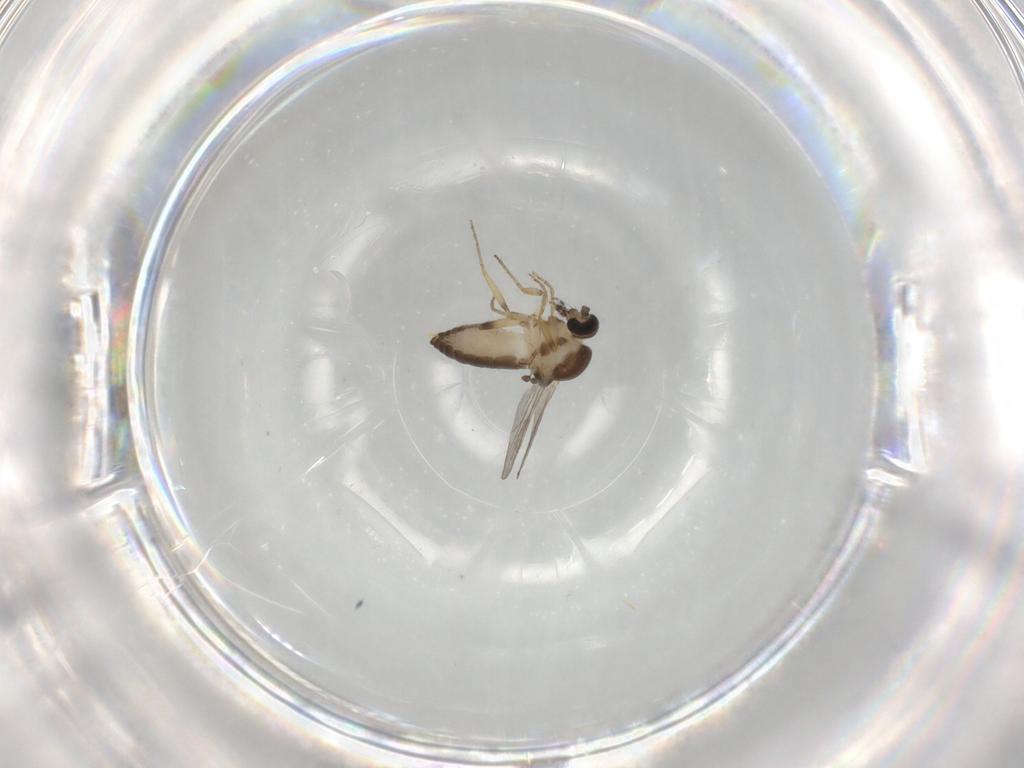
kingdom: Animalia
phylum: Arthropoda
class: Insecta
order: Diptera
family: Ceratopogonidae
